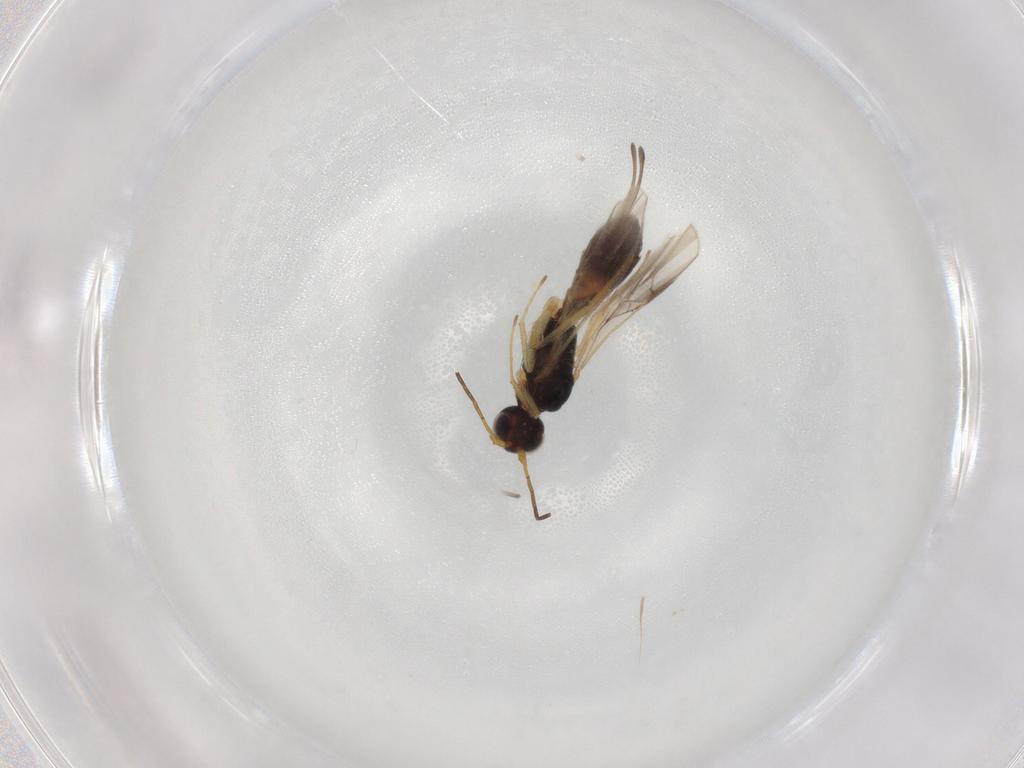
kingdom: Animalia
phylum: Arthropoda
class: Insecta
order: Hymenoptera
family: Braconidae
